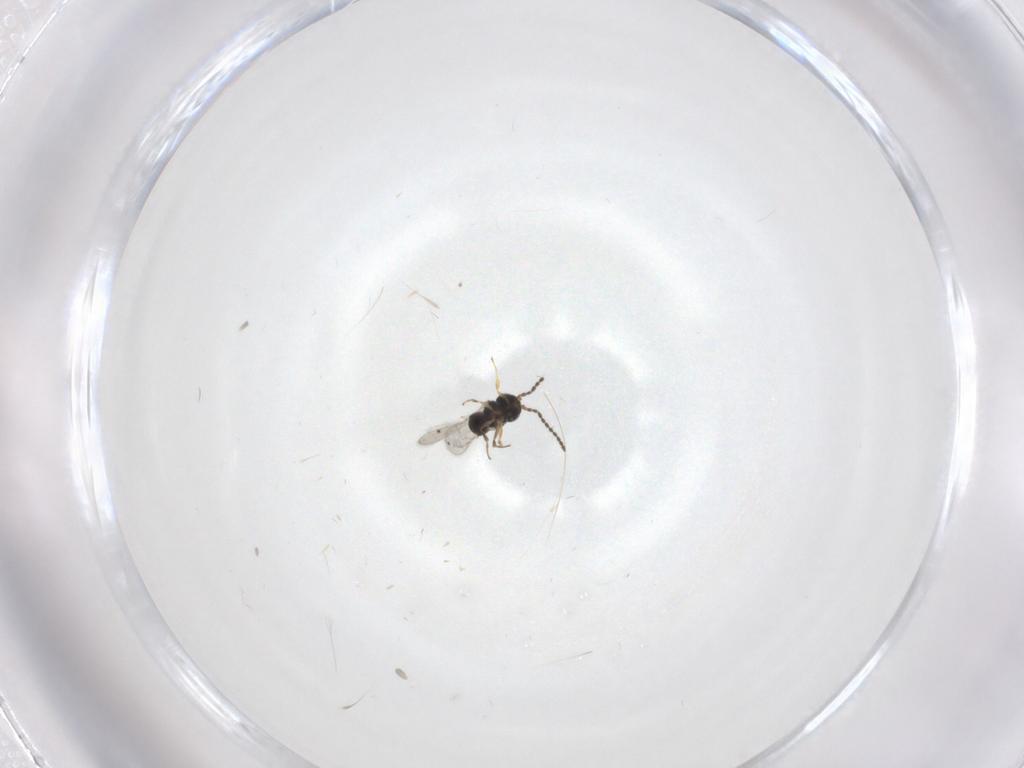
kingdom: Animalia
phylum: Arthropoda
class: Insecta
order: Hymenoptera
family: Scelionidae
